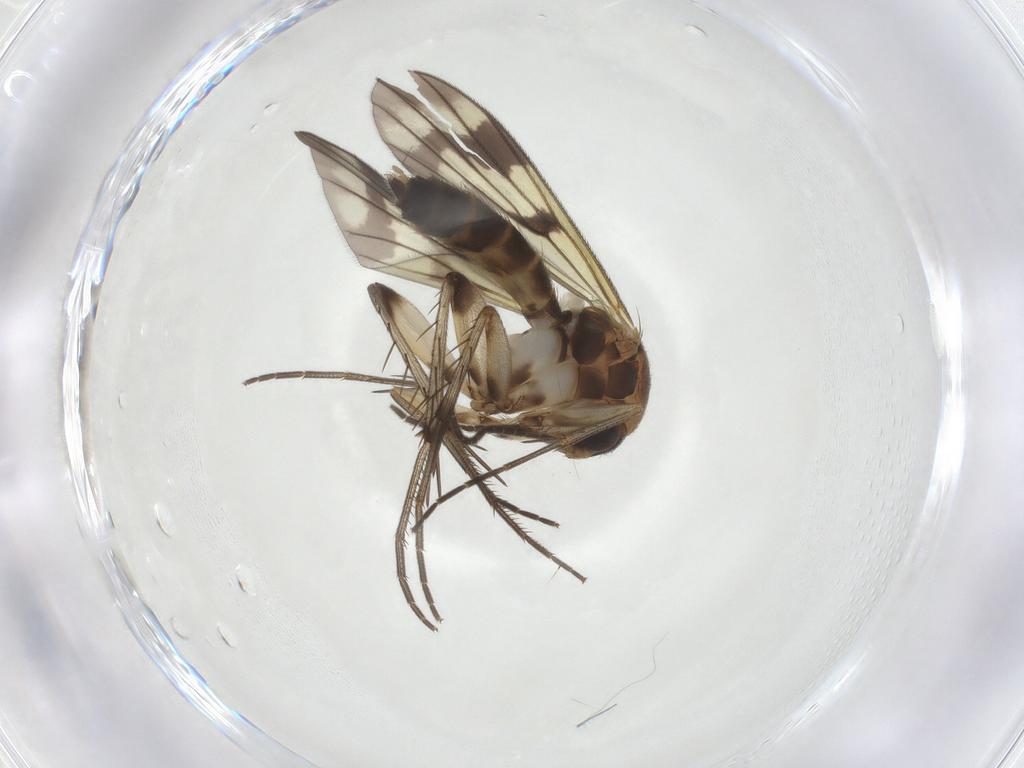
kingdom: Animalia
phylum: Arthropoda
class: Insecta
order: Diptera
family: Mycetophilidae
